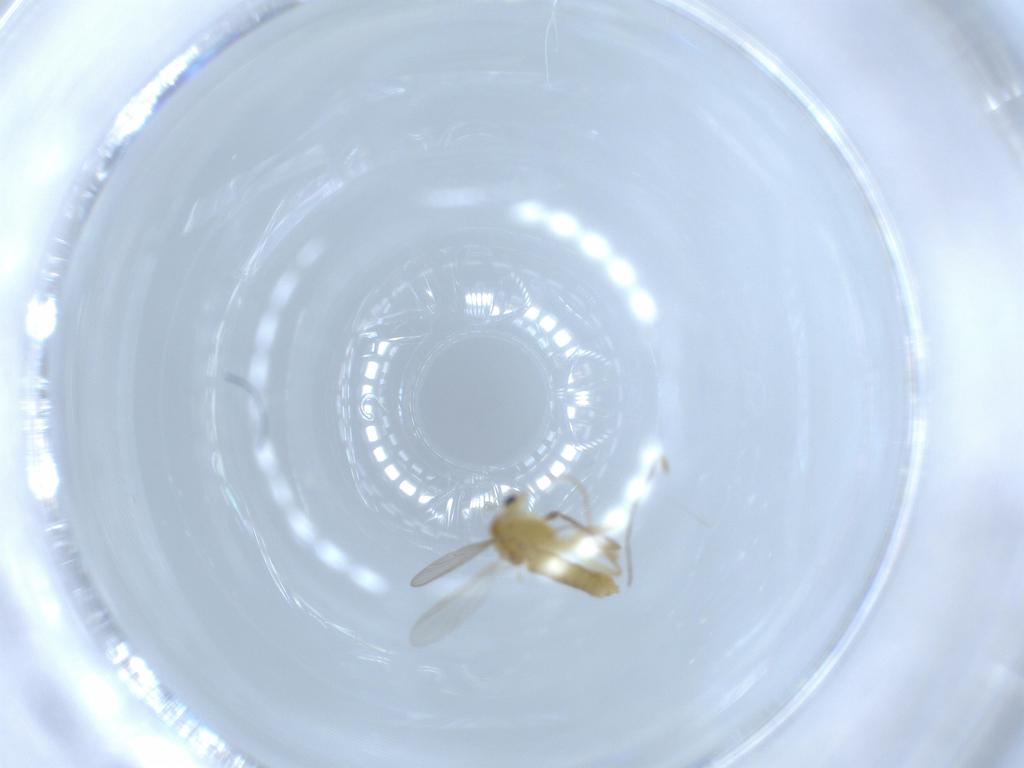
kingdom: Animalia
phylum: Arthropoda
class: Insecta
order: Diptera
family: Chironomidae
